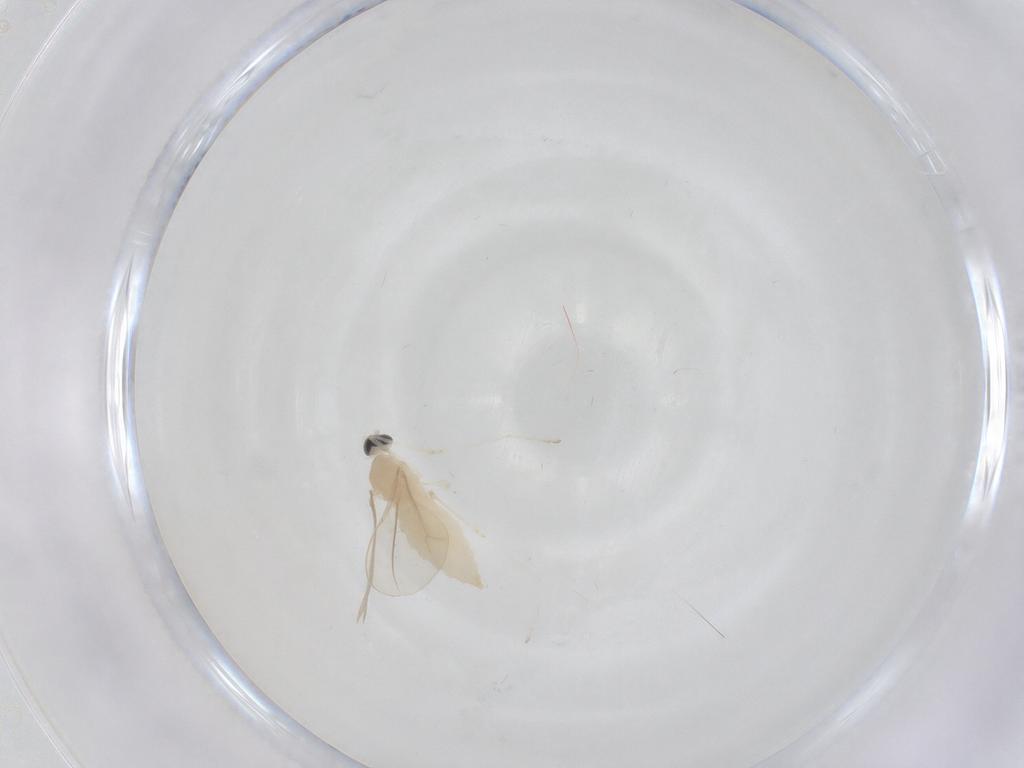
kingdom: Animalia
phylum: Arthropoda
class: Insecta
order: Diptera
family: Cecidomyiidae
